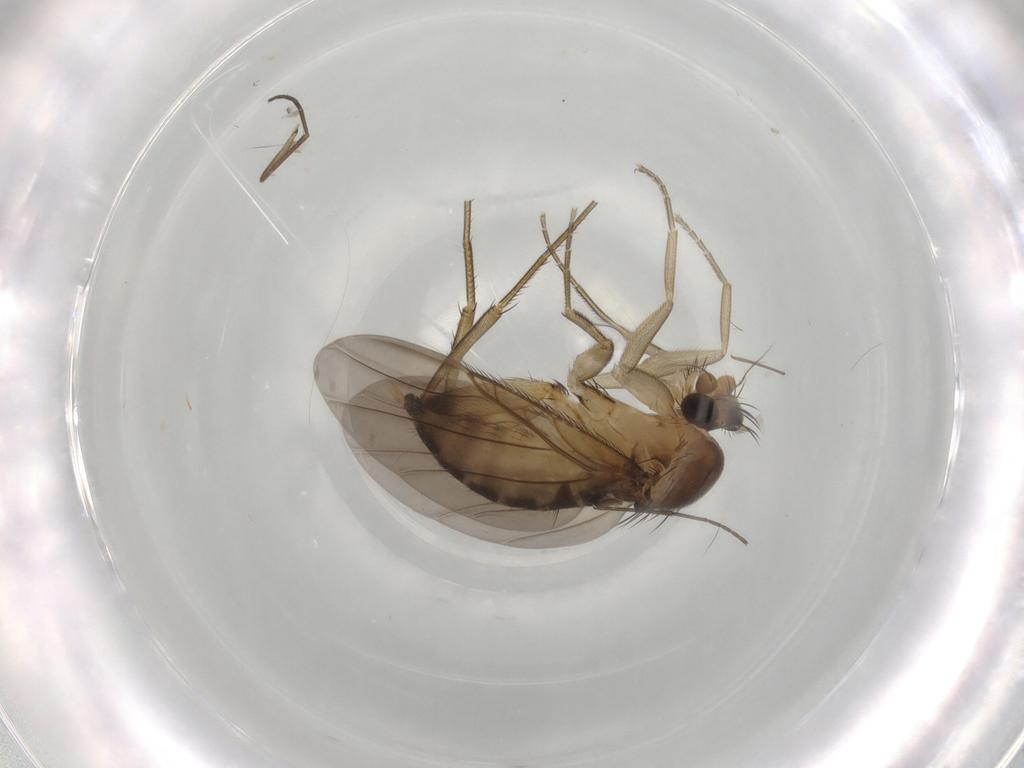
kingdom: Animalia
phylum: Arthropoda
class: Insecta
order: Diptera
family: Phoridae
